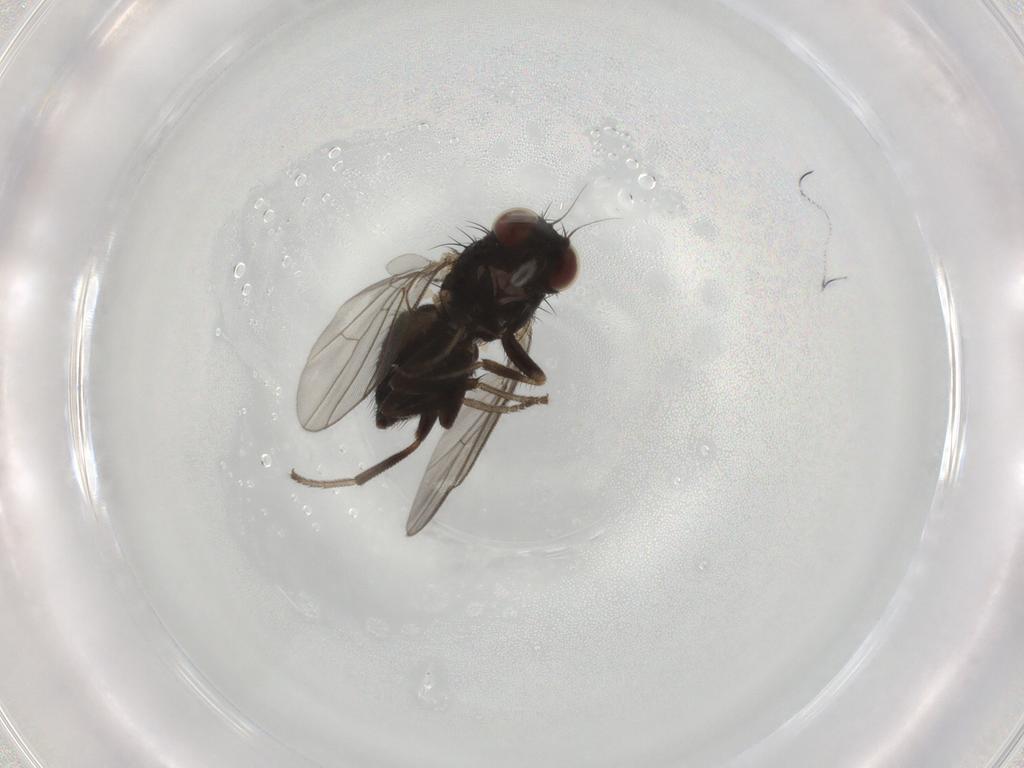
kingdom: Animalia
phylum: Arthropoda
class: Insecta
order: Diptera
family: Agromyzidae
